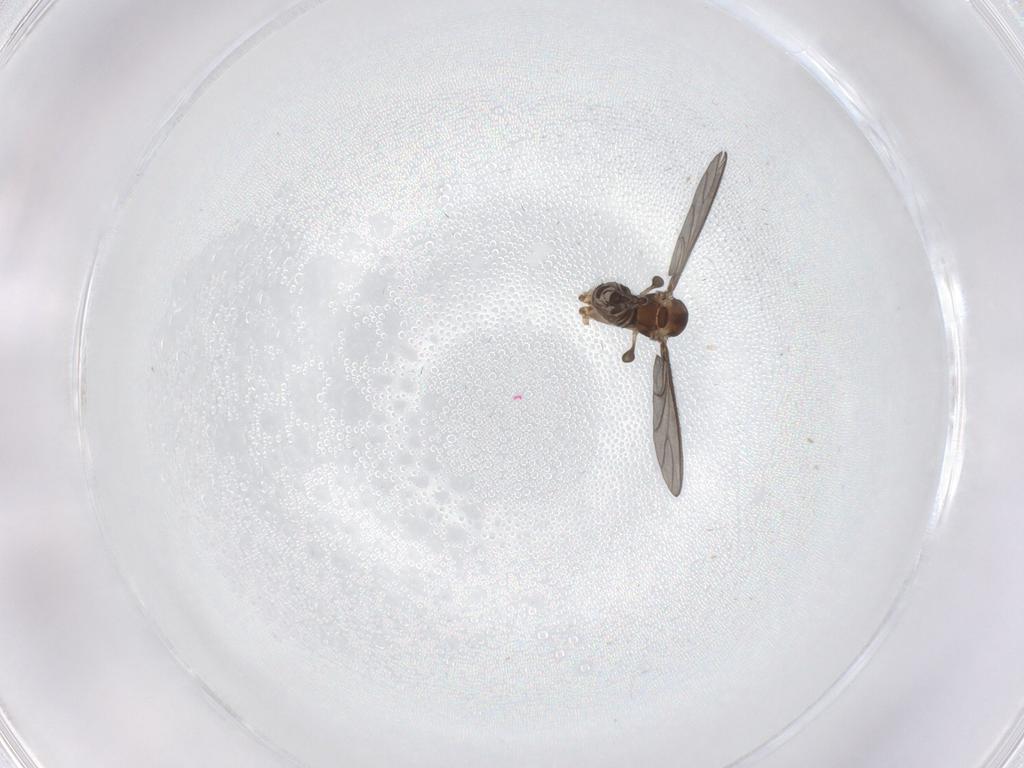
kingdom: Animalia
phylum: Arthropoda
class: Insecta
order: Diptera
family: Sciaridae
